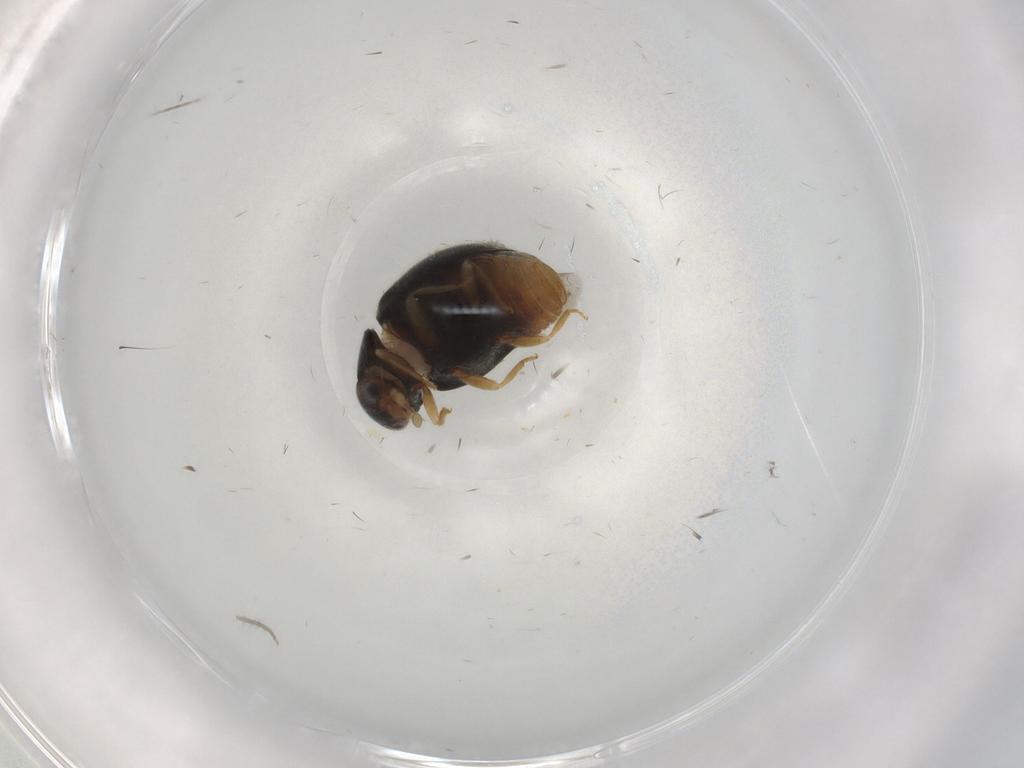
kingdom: Animalia
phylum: Arthropoda
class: Insecta
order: Coleoptera
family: Coccinellidae
